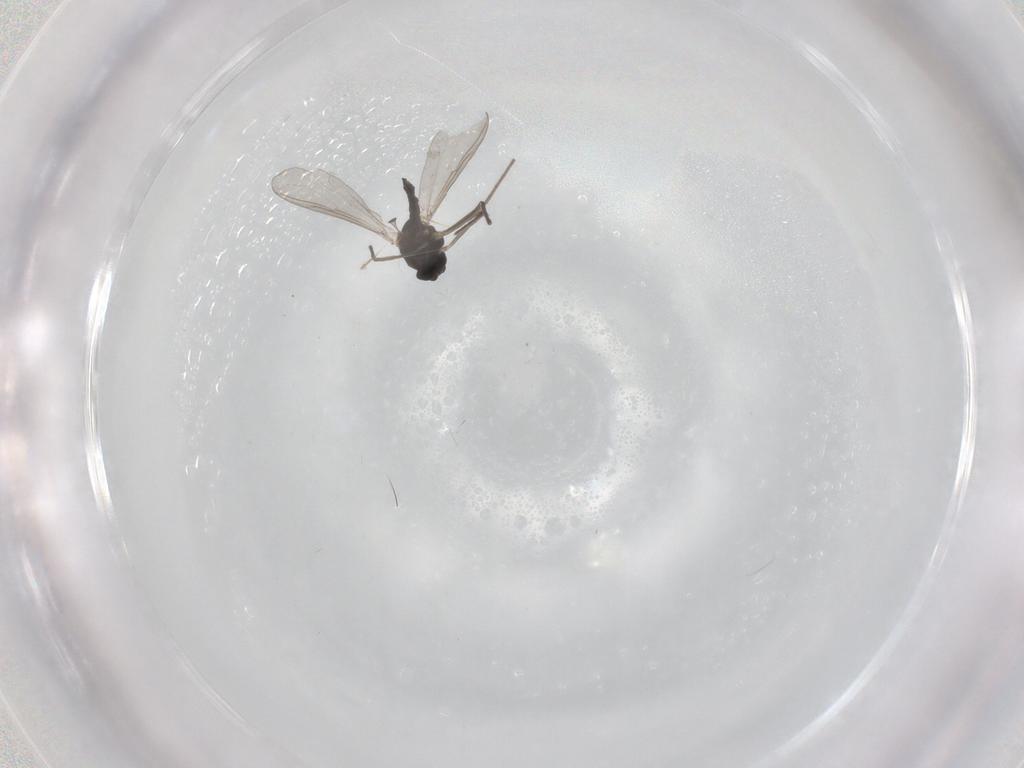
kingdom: Animalia
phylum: Arthropoda
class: Insecta
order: Diptera
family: Chironomidae
